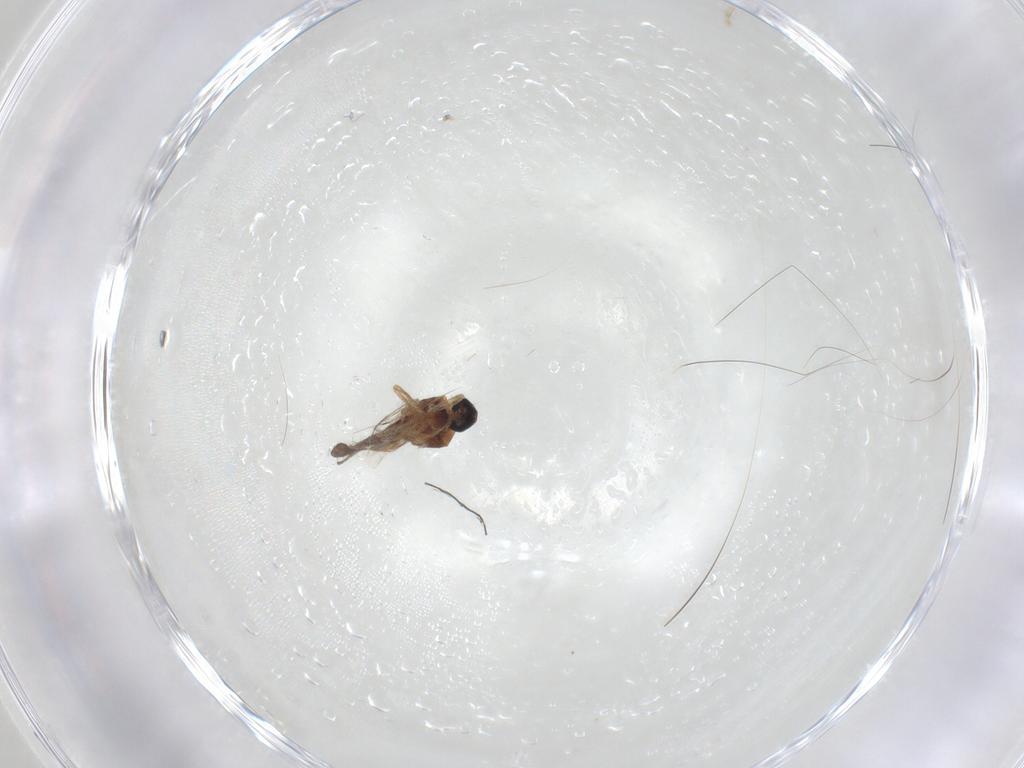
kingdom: Animalia
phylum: Arthropoda
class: Insecta
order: Diptera
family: Ceratopogonidae
